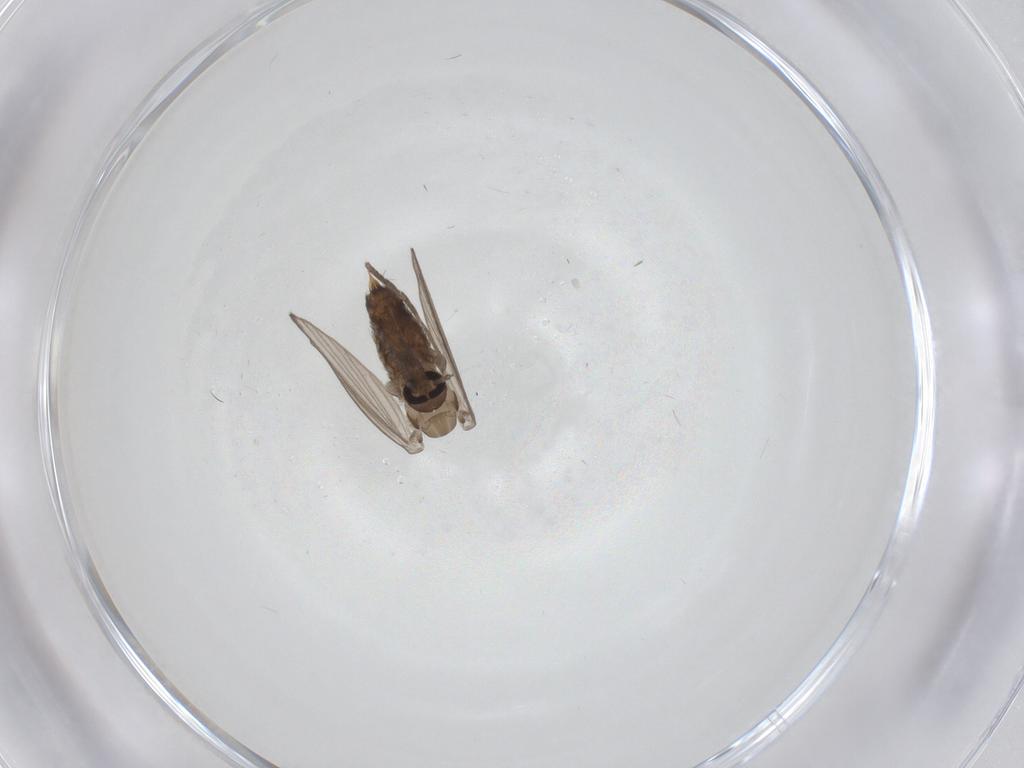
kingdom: Animalia
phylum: Arthropoda
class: Insecta
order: Diptera
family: Psychodidae
